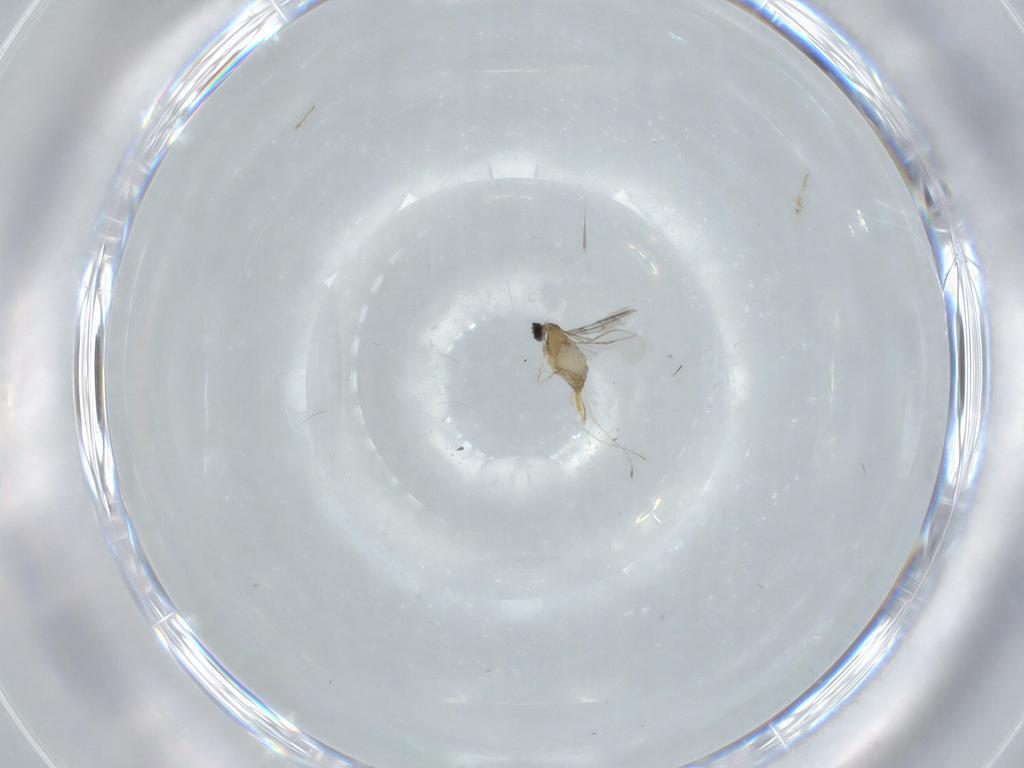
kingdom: Animalia
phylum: Arthropoda
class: Insecta
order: Diptera
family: Cecidomyiidae
